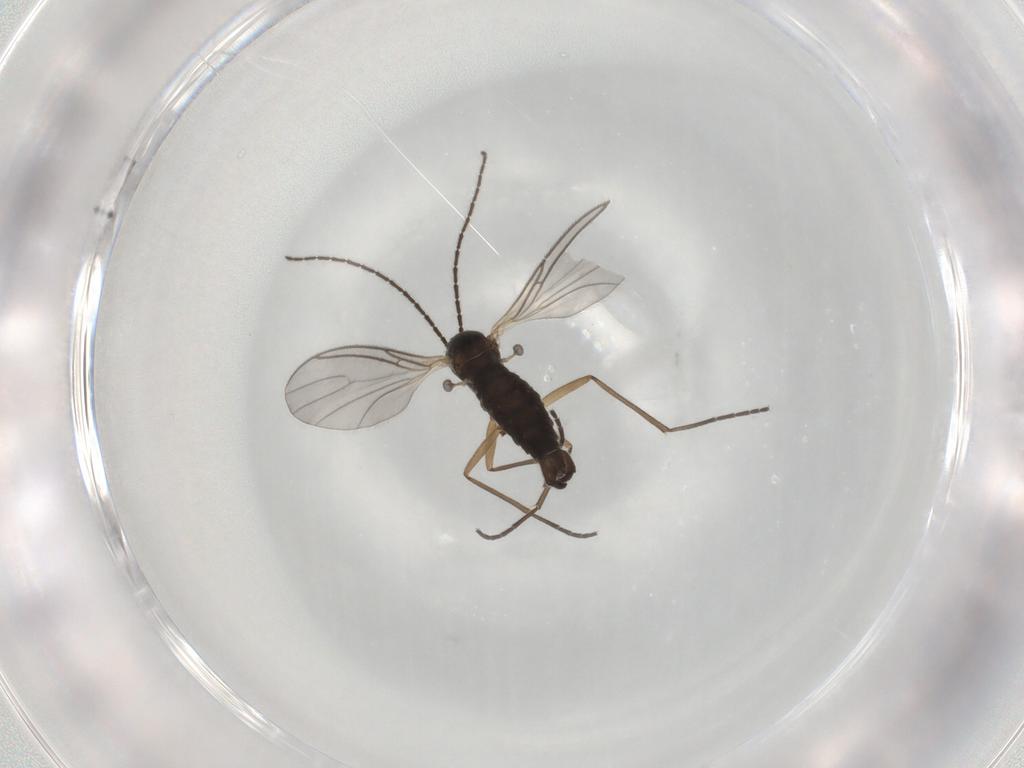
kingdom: Animalia
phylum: Arthropoda
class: Insecta
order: Diptera
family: Sciaridae
